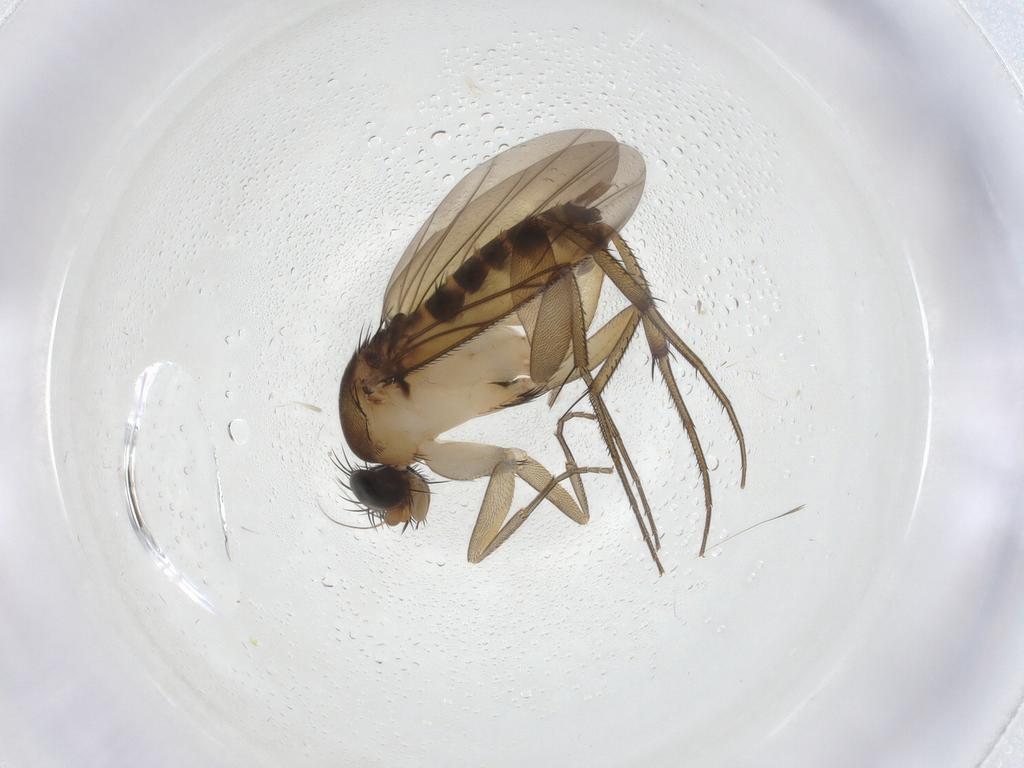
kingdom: Animalia
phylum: Arthropoda
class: Insecta
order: Diptera
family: Phoridae
